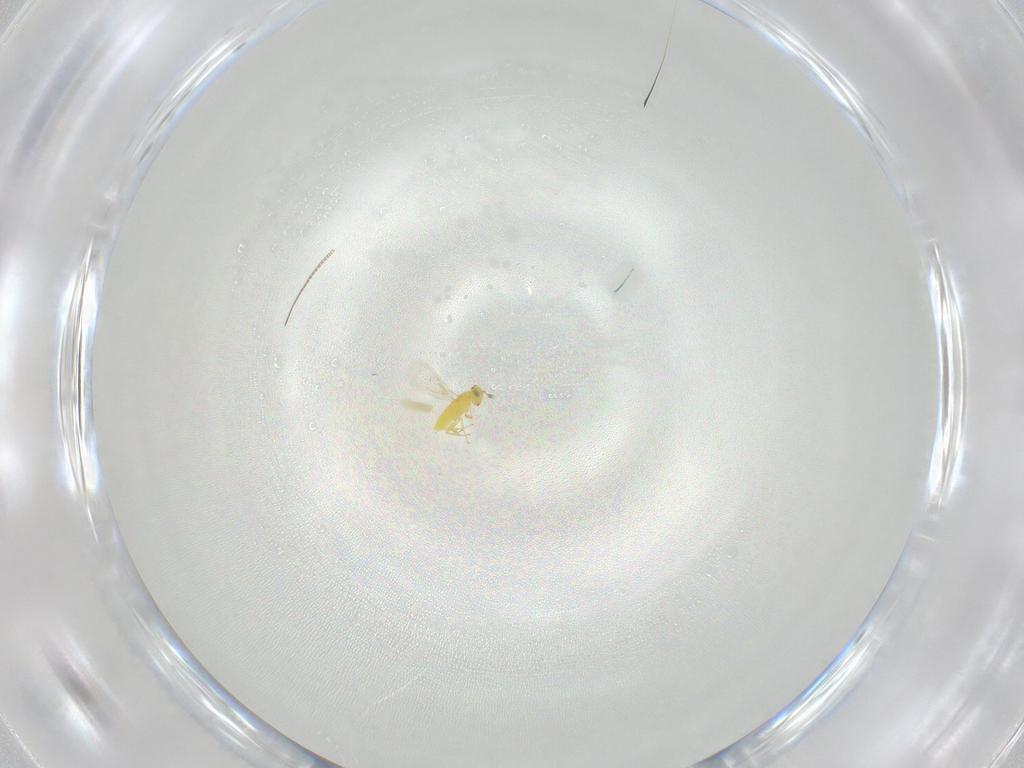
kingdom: Animalia
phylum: Arthropoda
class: Insecta
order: Hymenoptera
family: Aphelinidae
